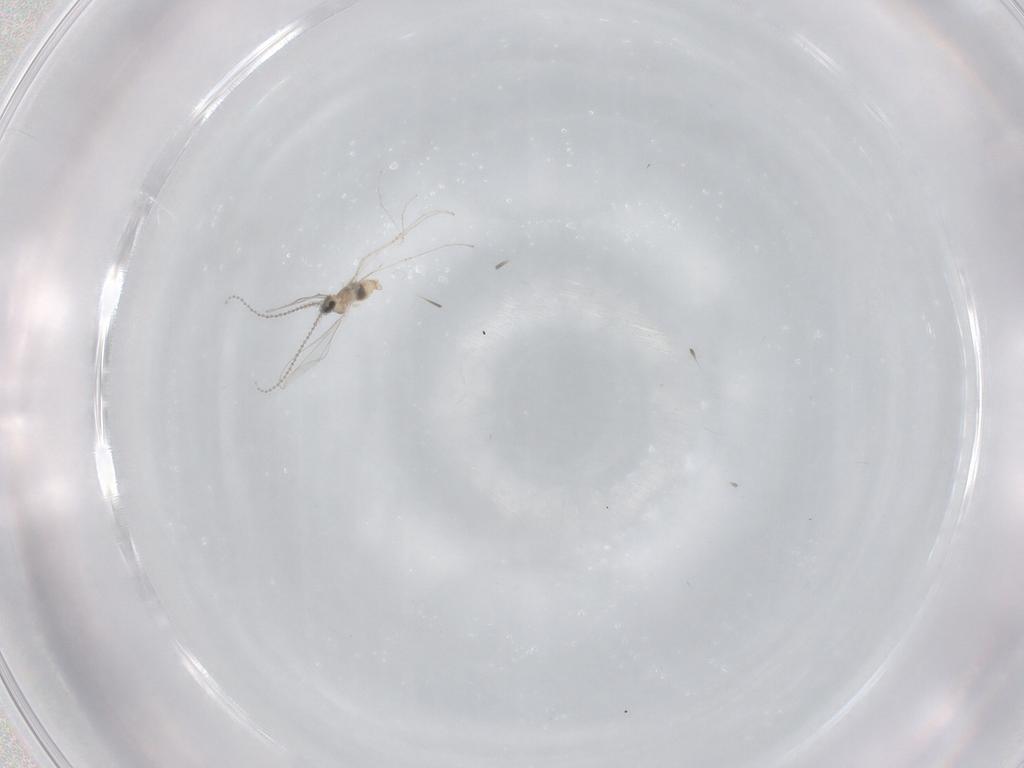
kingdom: Animalia
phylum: Arthropoda
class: Insecta
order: Diptera
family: Cecidomyiidae
